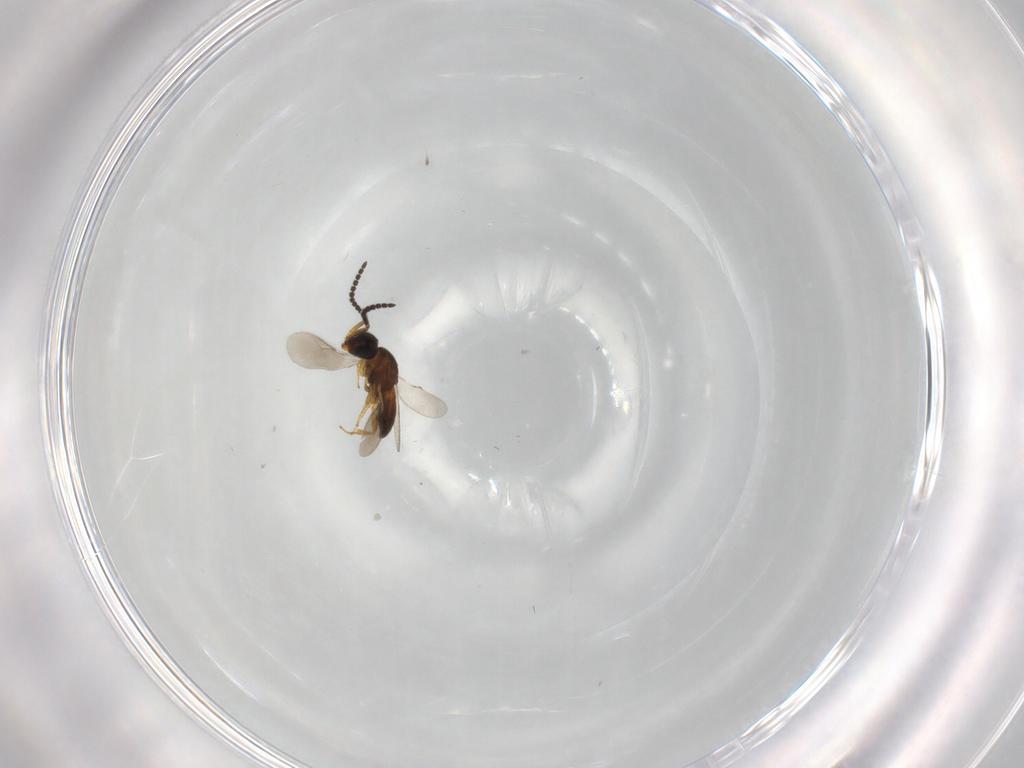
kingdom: Animalia
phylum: Arthropoda
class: Insecta
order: Hymenoptera
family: Scelionidae
